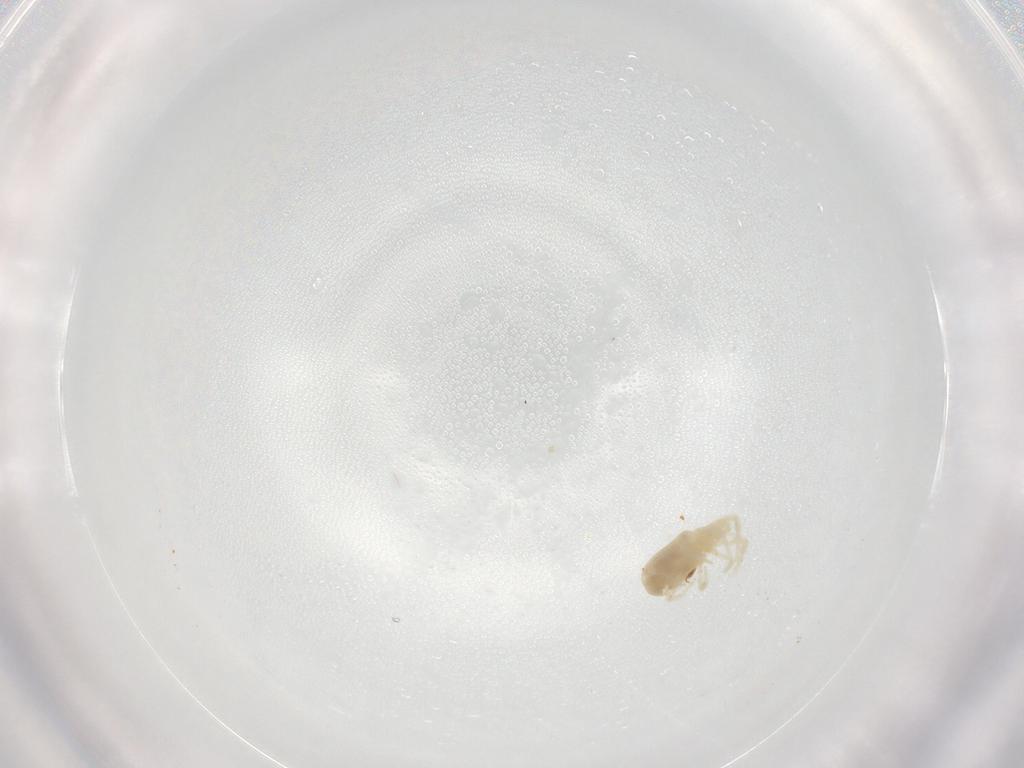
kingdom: Animalia
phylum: Arthropoda
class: Arachnida
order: Trombidiformes
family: Rhagidiidae
